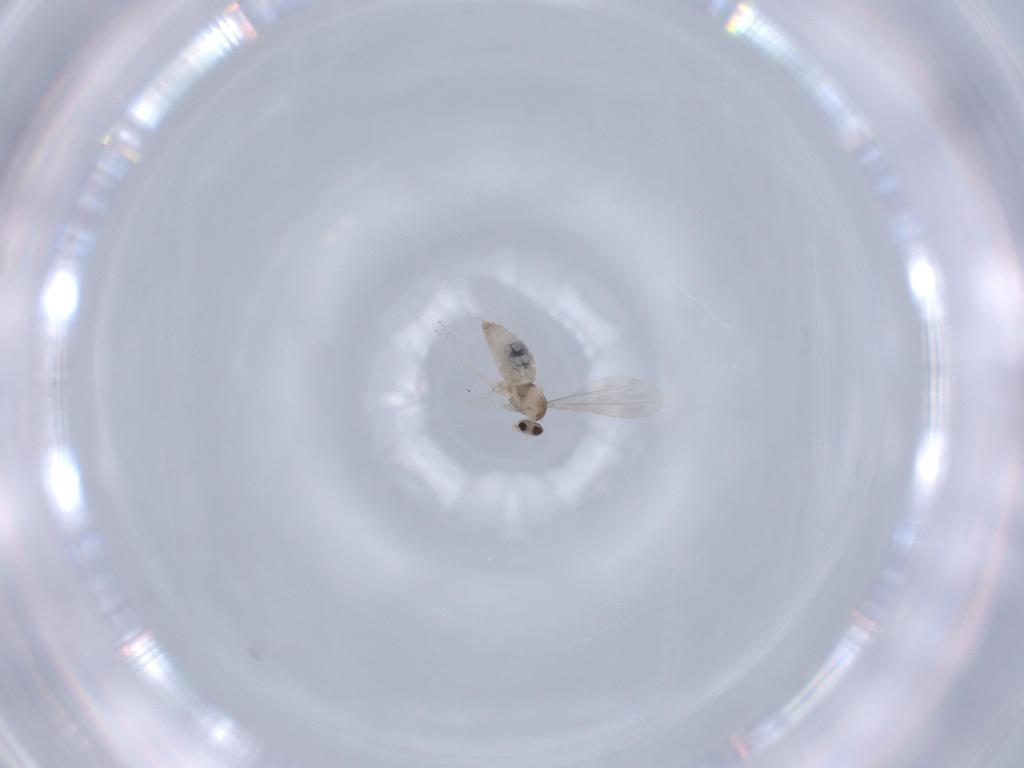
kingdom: Animalia
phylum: Arthropoda
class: Insecta
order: Diptera
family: Cecidomyiidae
